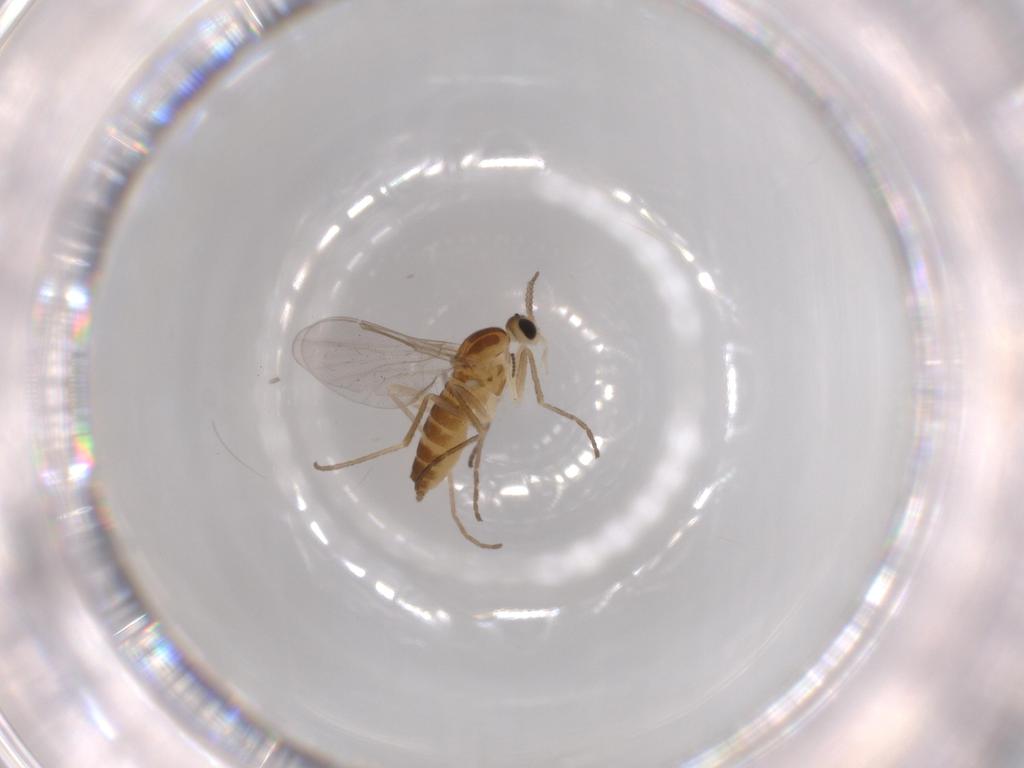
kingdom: Animalia
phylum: Arthropoda
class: Insecta
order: Diptera
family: Cecidomyiidae
